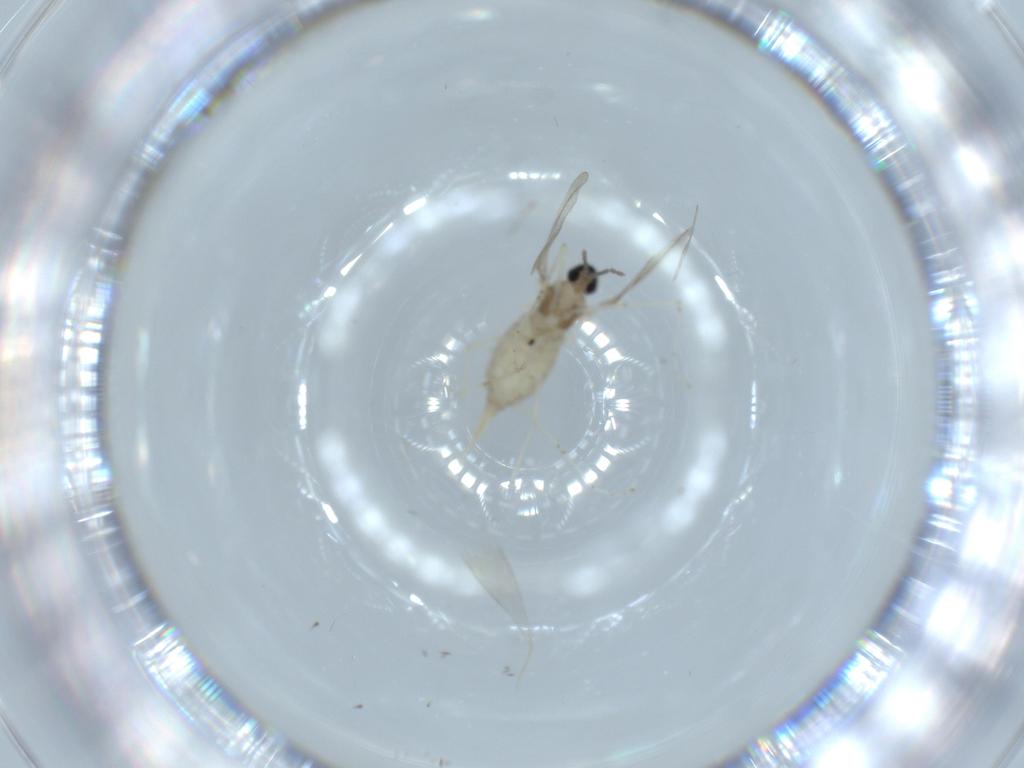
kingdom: Animalia
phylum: Arthropoda
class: Insecta
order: Diptera
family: Cecidomyiidae
